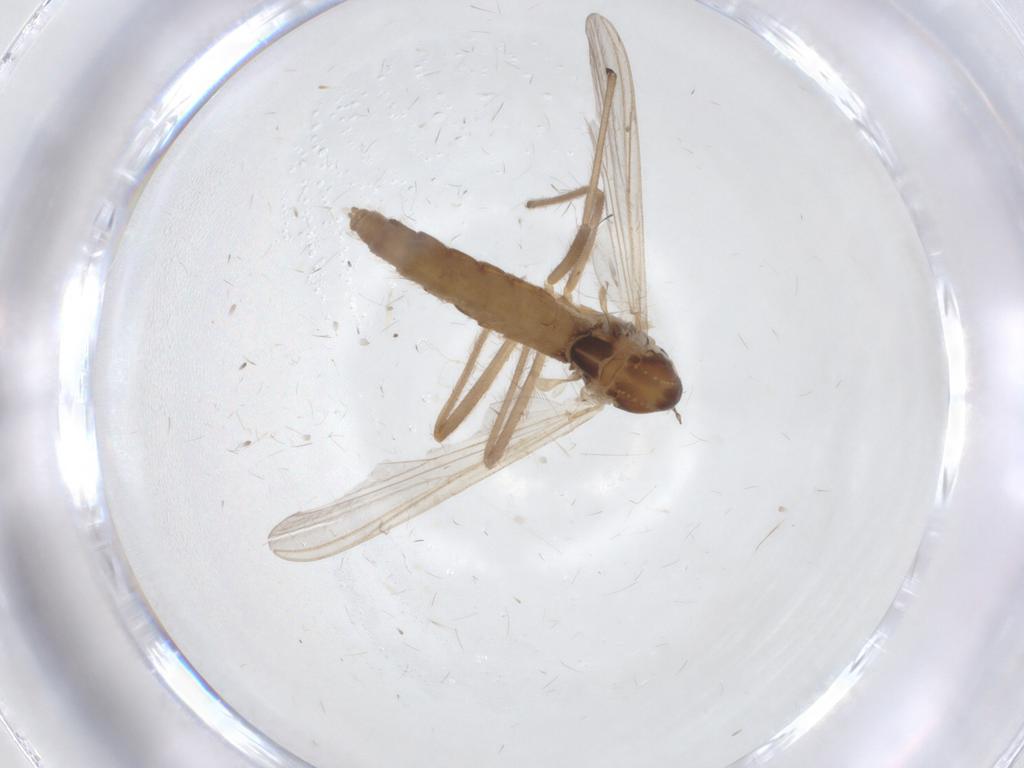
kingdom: Animalia
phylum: Arthropoda
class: Insecta
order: Diptera
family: Chironomidae
